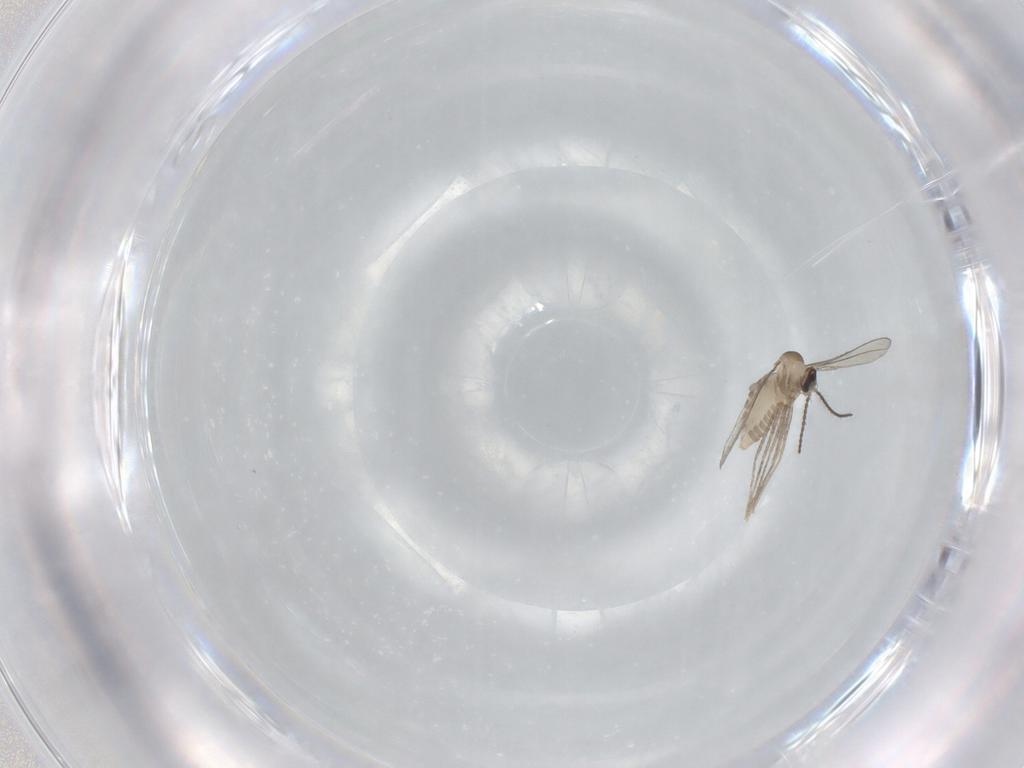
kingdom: Animalia
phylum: Arthropoda
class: Insecta
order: Diptera
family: Cecidomyiidae
